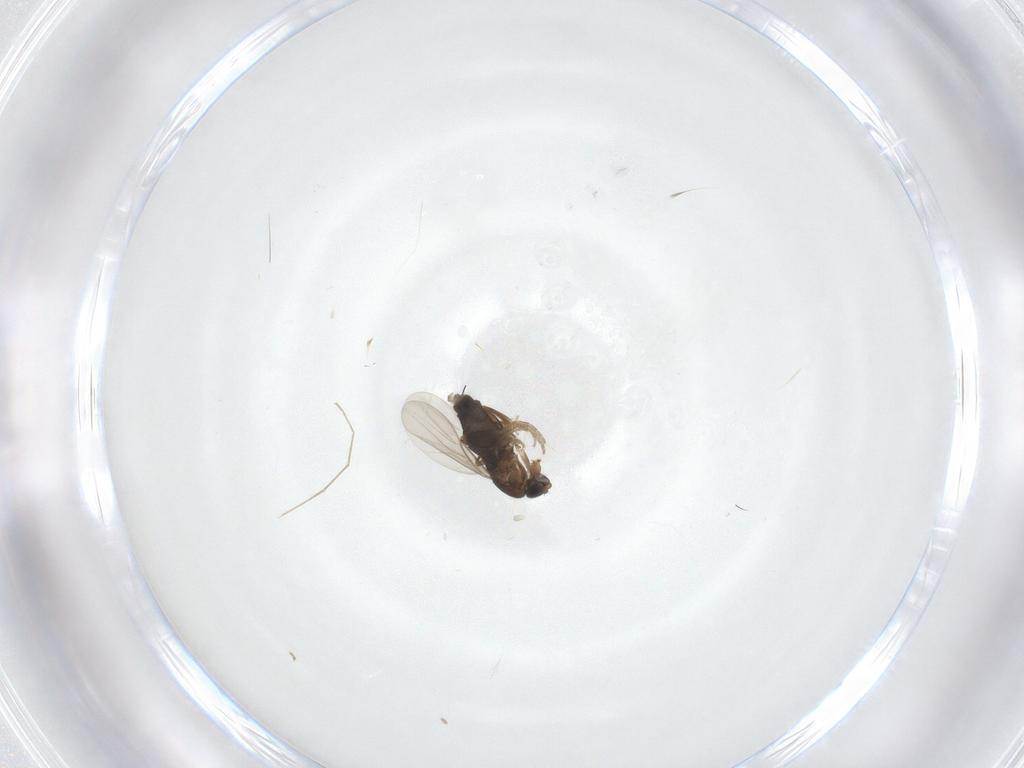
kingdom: Animalia
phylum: Arthropoda
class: Insecta
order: Diptera
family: Phoridae
